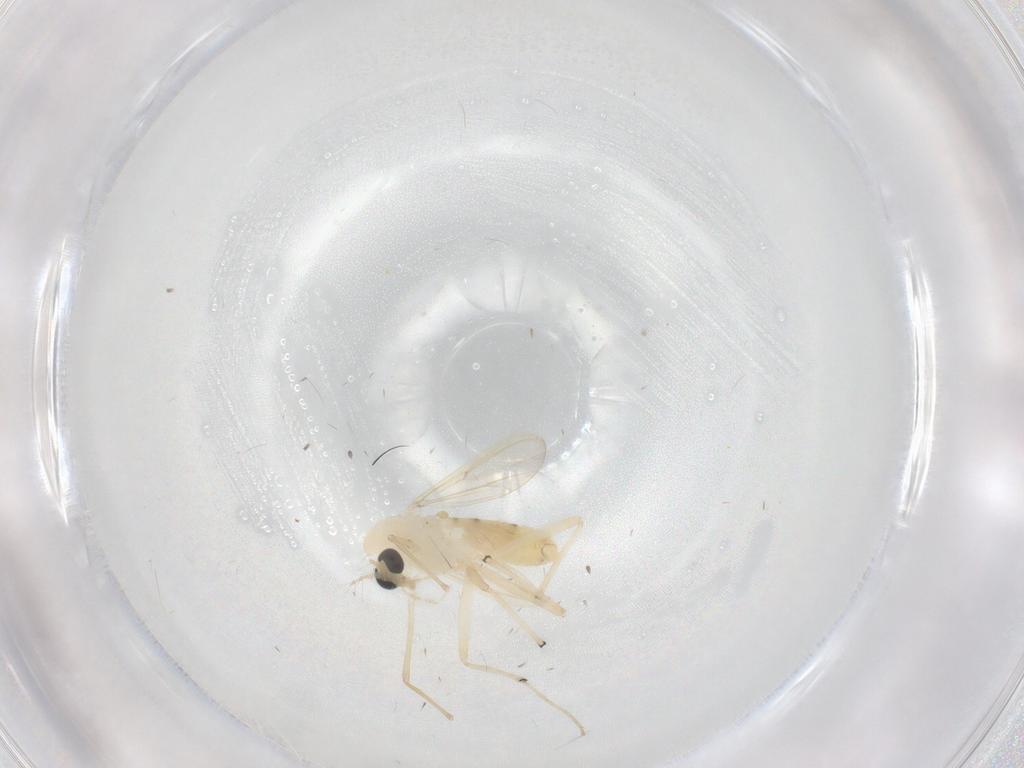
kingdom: Animalia
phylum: Arthropoda
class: Insecta
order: Diptera
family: Chironomidae
